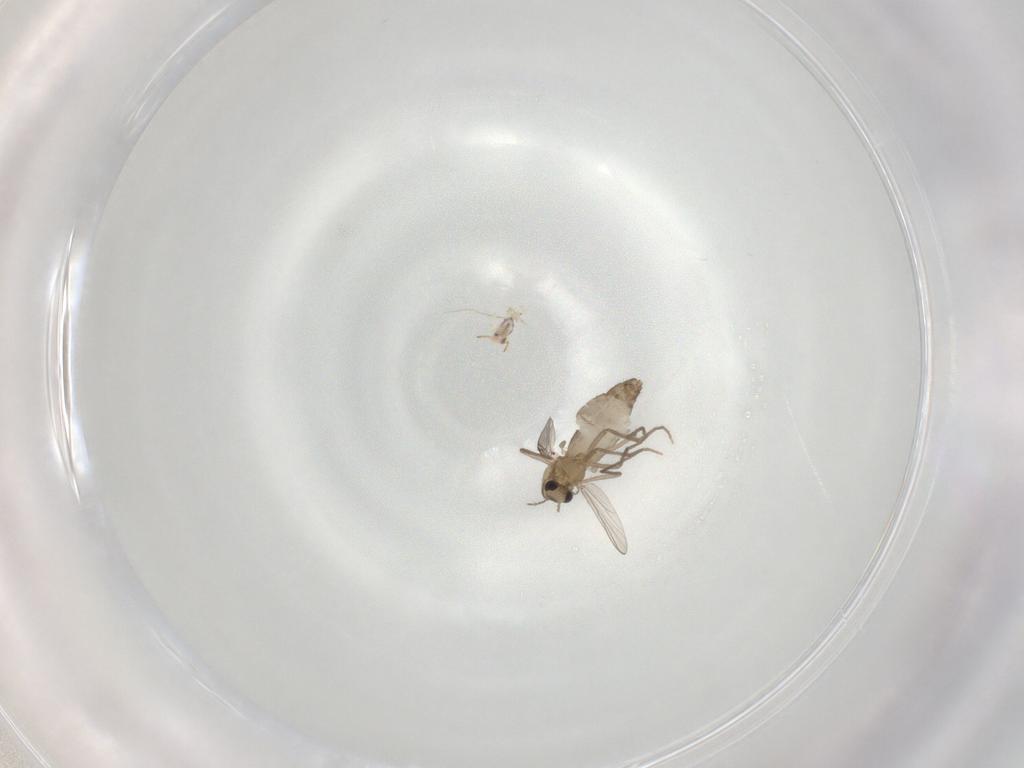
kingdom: Animalia
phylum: Arthropoda
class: Insecta
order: Diptera
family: Chironomidae
